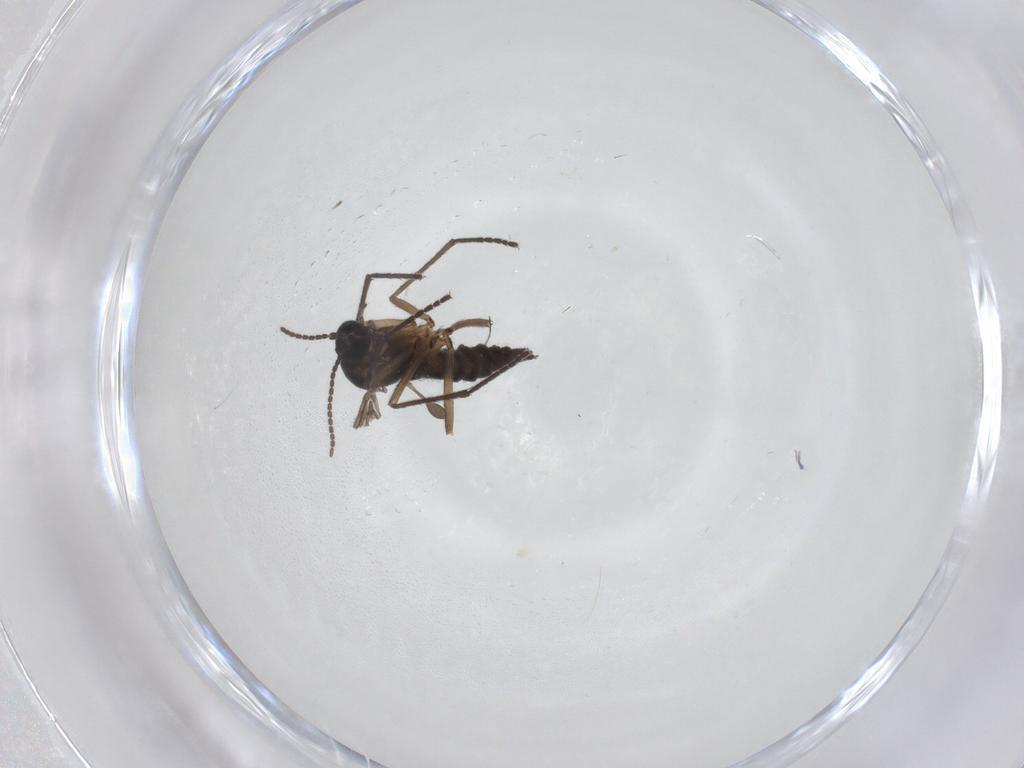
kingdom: Animalia
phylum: Arthropoda
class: Insecta
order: Diptera
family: Sciaridae
